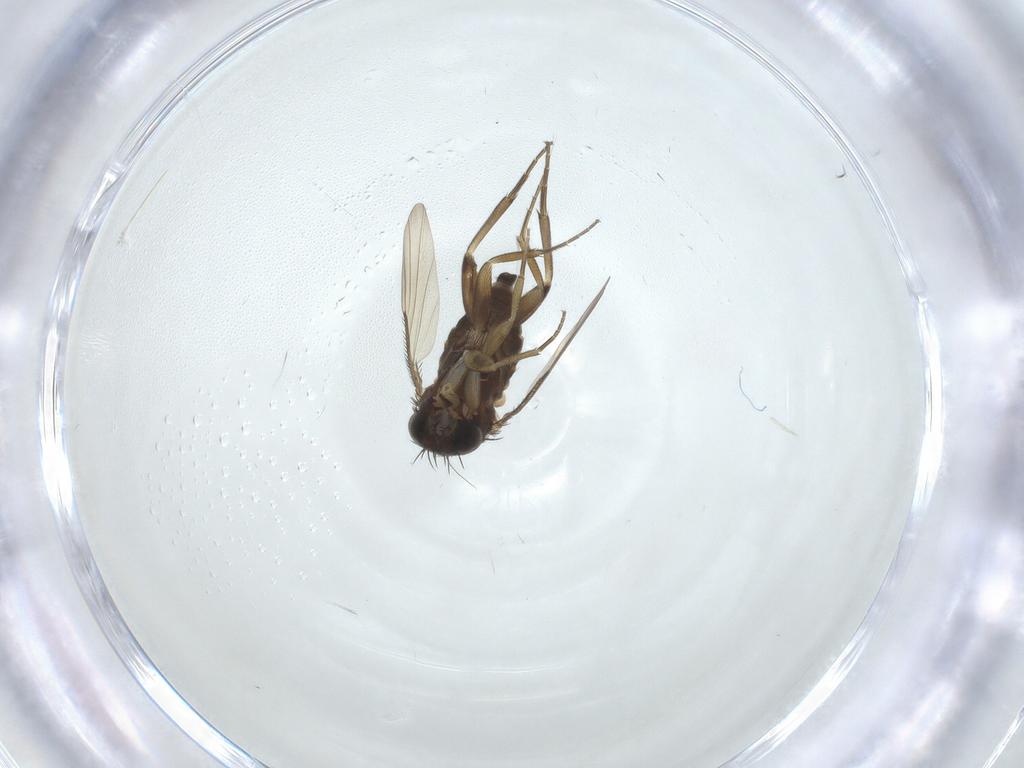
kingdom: Animalia
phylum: Arthropoda
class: Insecta
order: Diptera
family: Phoridae
